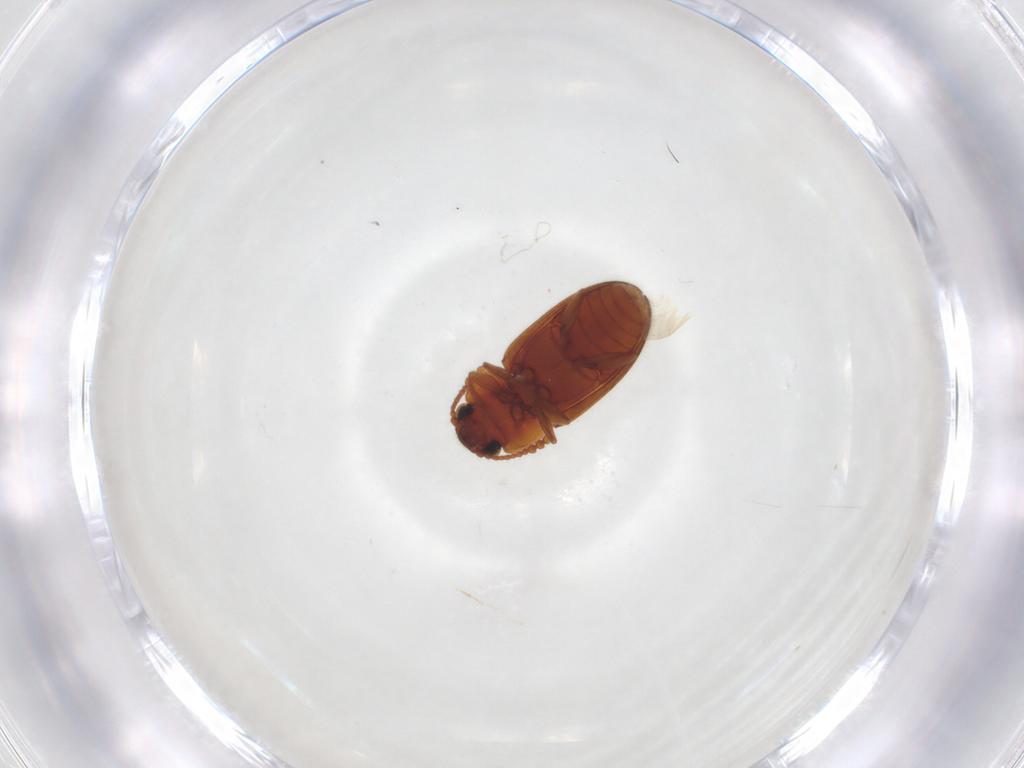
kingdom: Animalia
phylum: Arthropoda
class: Insecta
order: Coleoptera
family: Erotylidae
